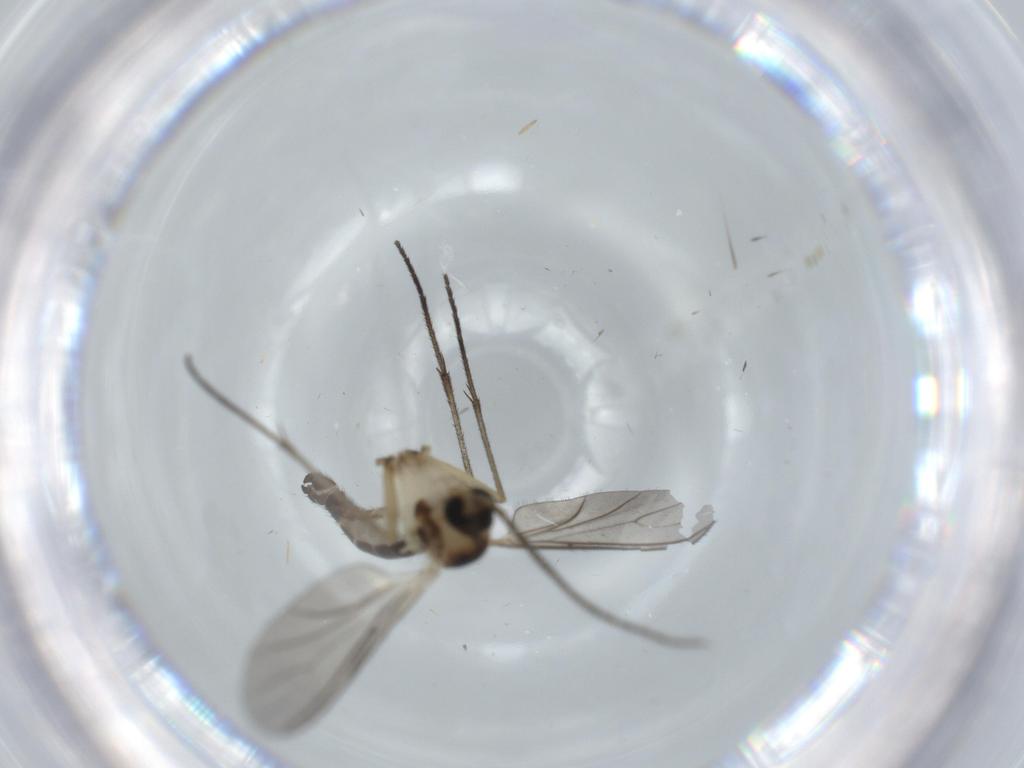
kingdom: Animalia
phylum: Arthropoda
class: Insecta
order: Diptera
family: Sciaridae
